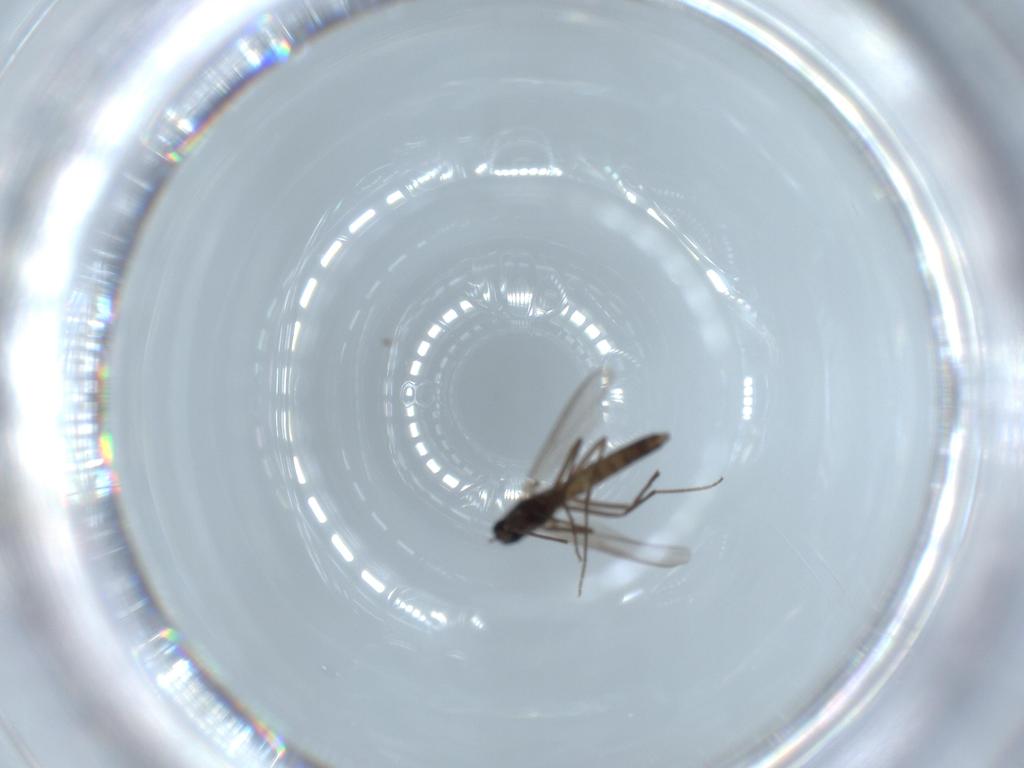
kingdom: Animalia
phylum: Arthropoda
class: Insecta
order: Diptera
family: Chironomidae
